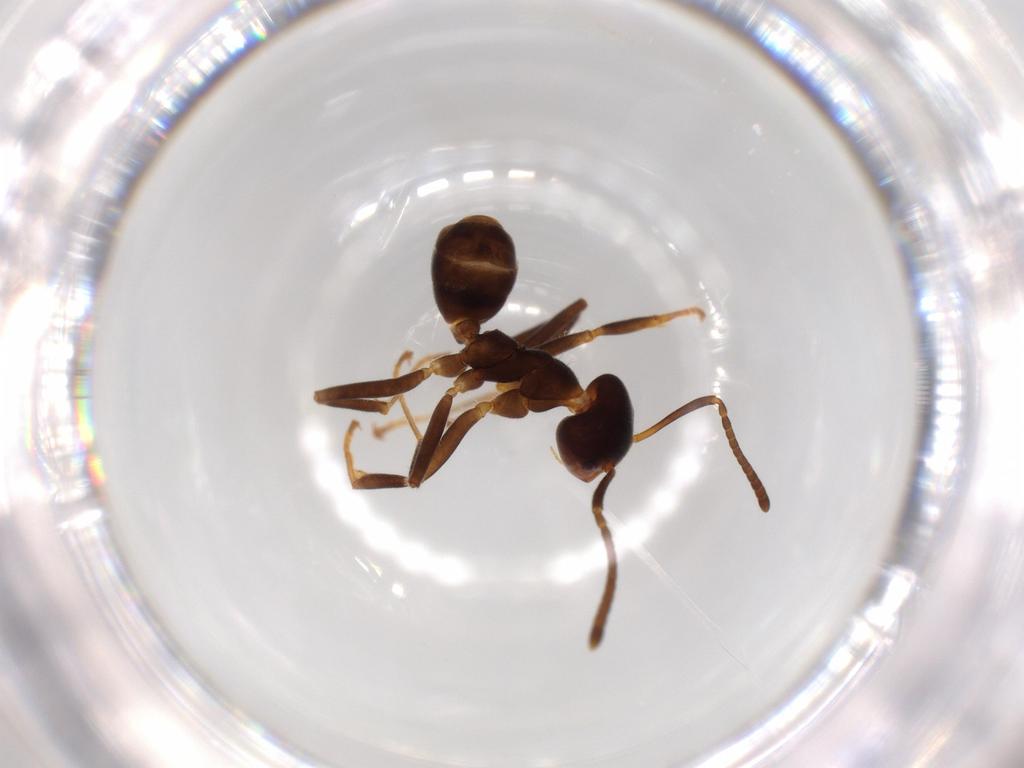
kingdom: Animalia
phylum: Arthropoda
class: Insecta
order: Hymenoptera
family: Formicidae
